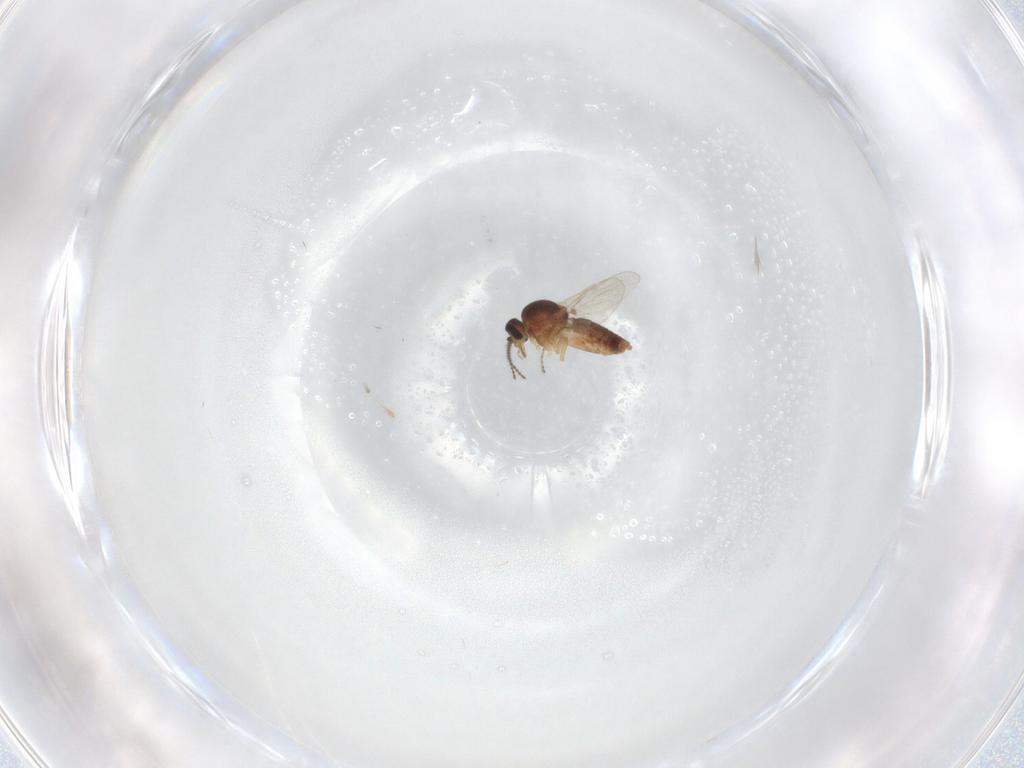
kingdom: Animalia
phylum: Arthropoda
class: Insecta
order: Diptera
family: Ceratopogonidae
